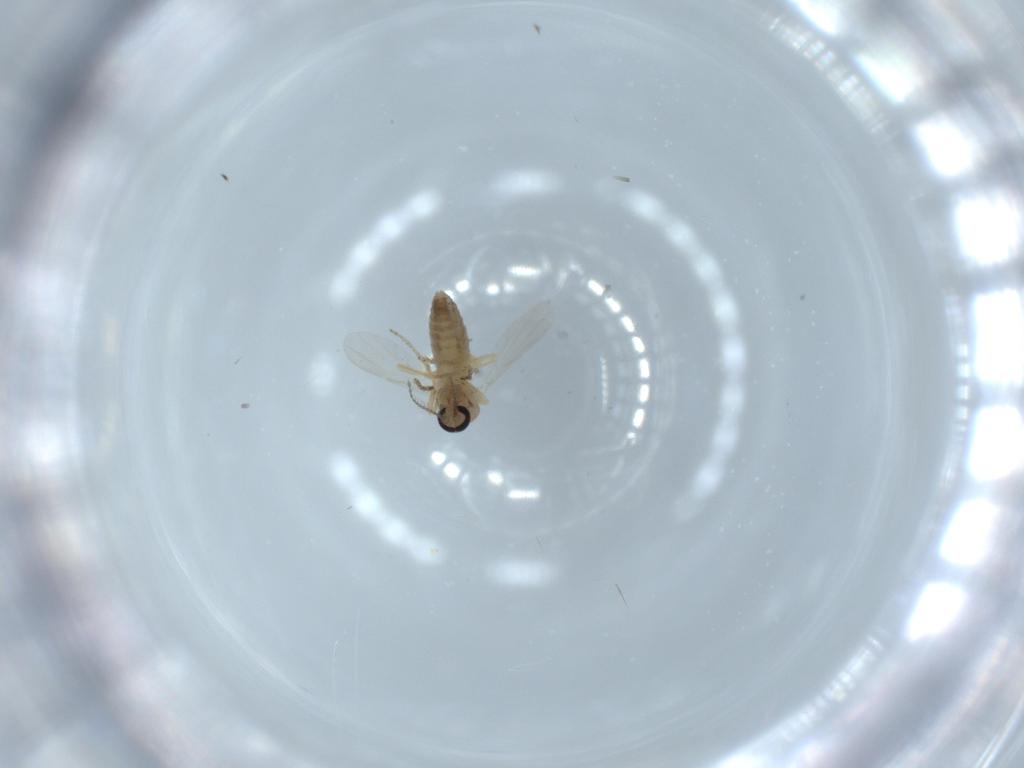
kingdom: Animalia
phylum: Arthropoda
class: Insecta
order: Diptera
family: Ceratopogonidae
